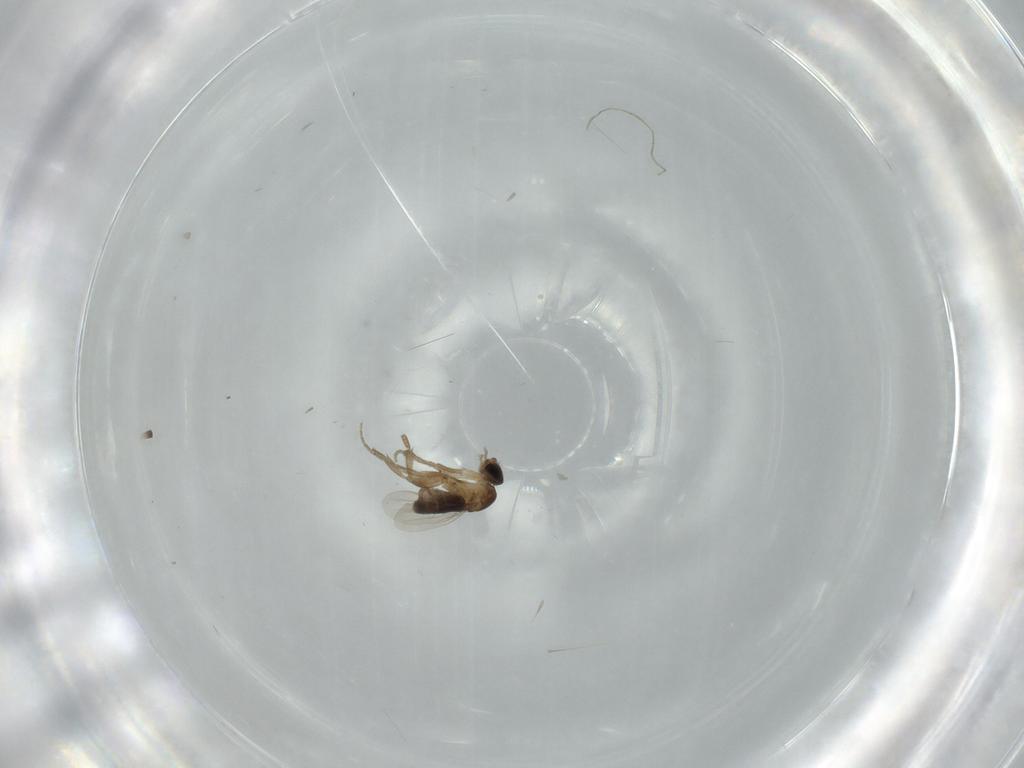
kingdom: Animalia
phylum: Arthropoda
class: Insecta
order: Diptera
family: Phoridae
